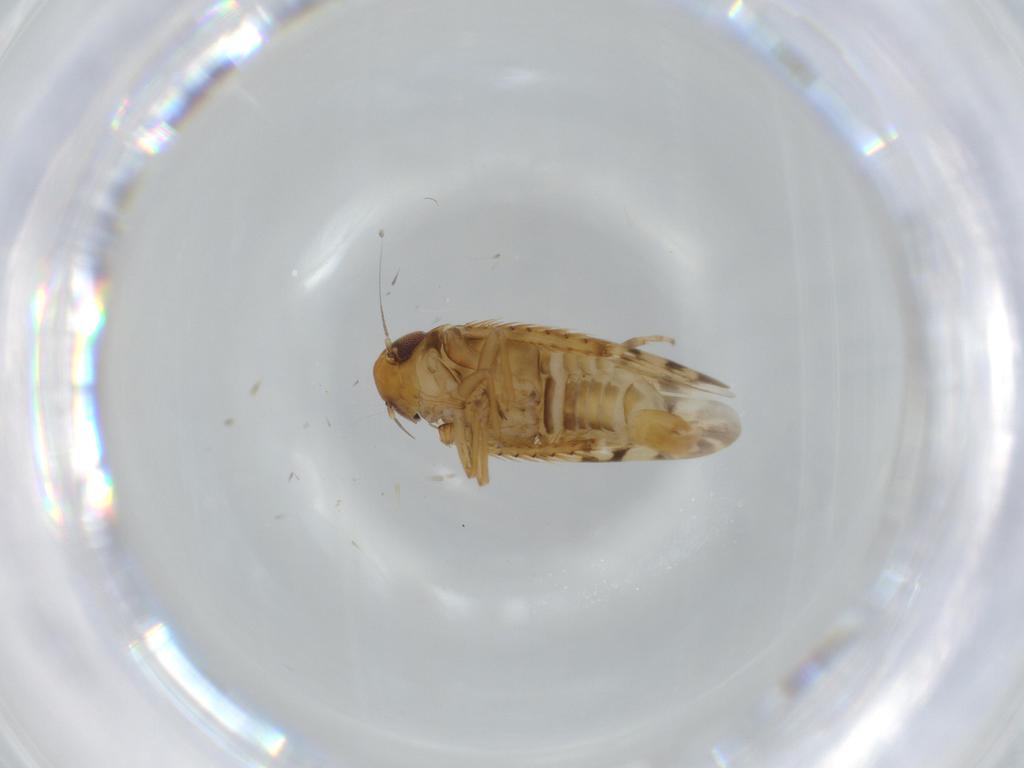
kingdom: Animalia
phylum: Arthropoda
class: Insecta
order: Hemiptera
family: Cicadellidae
